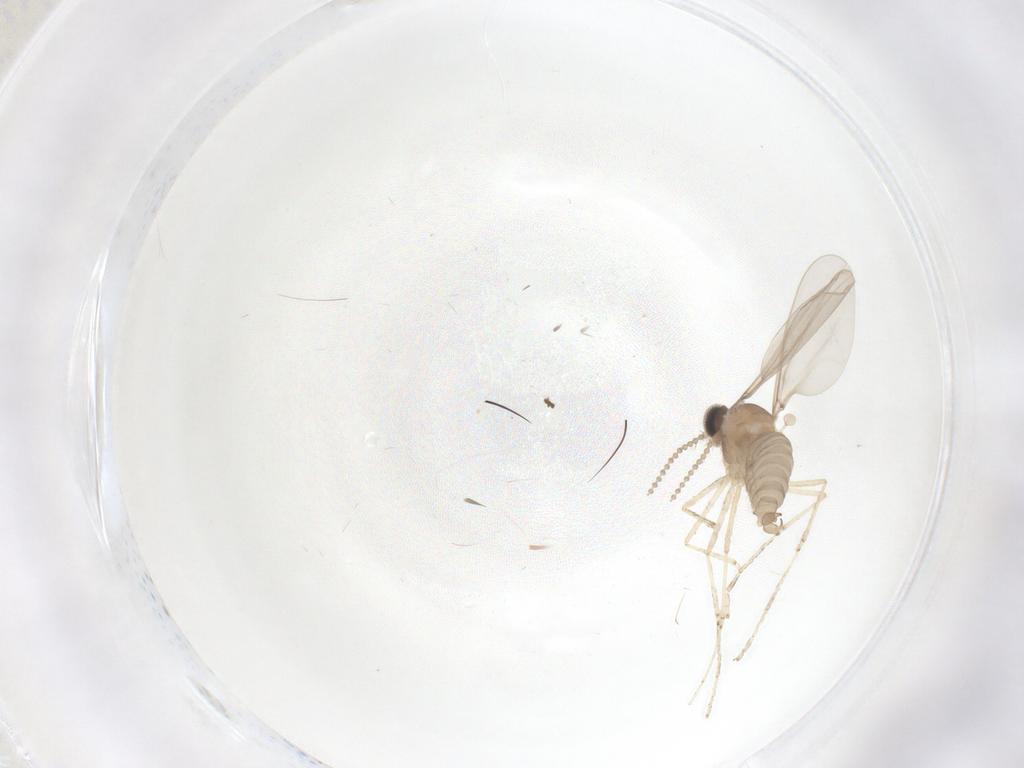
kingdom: Animalia
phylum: Arthropoda
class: Insecta
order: Diptera
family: Cecidomyiidae
